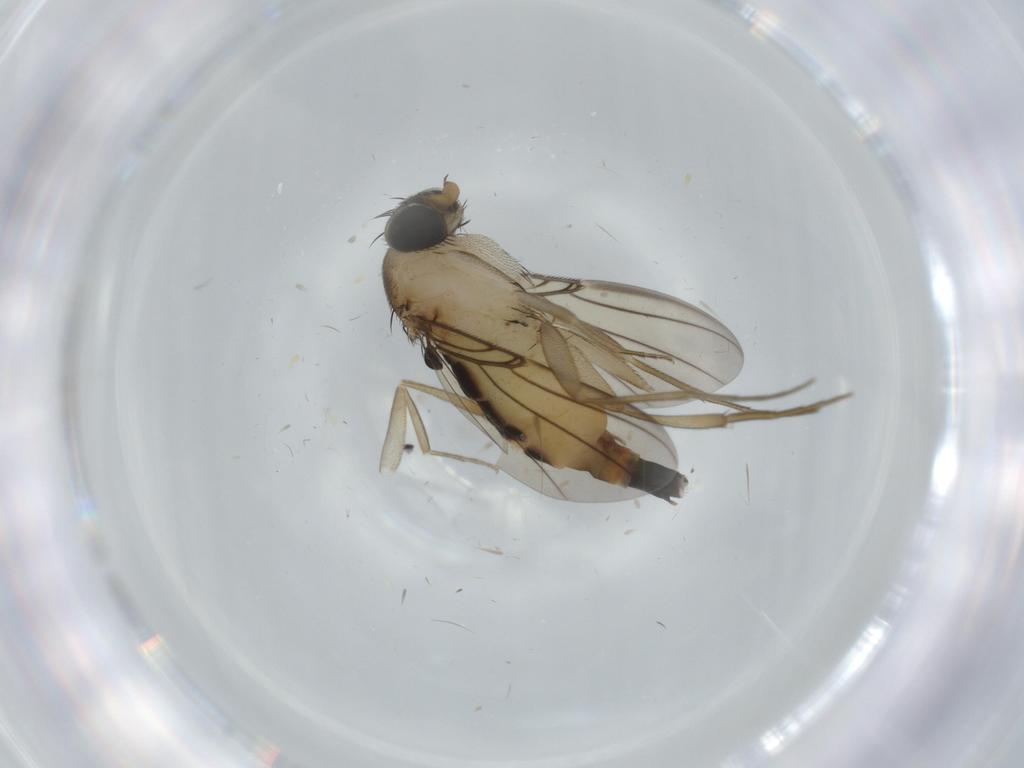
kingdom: Animalia
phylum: Arthropoda
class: Insecta
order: Diptera
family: Phoridae
